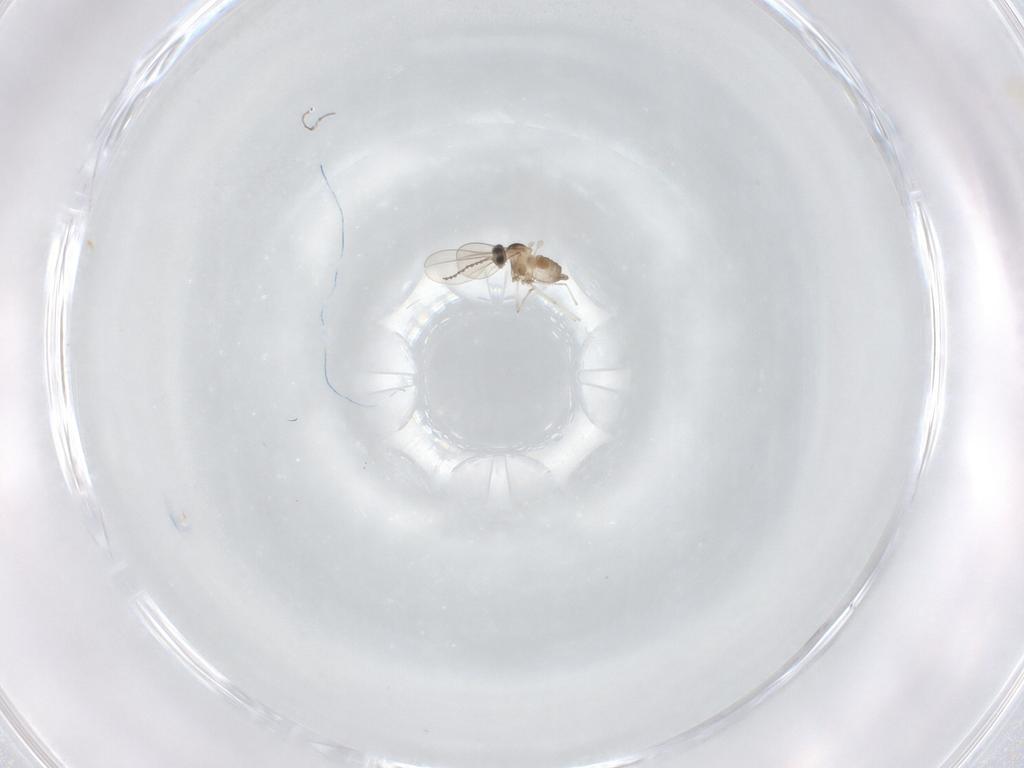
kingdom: Animalia
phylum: Arthropoda
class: Insecta
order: Diptera
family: Cecidomyiidae
